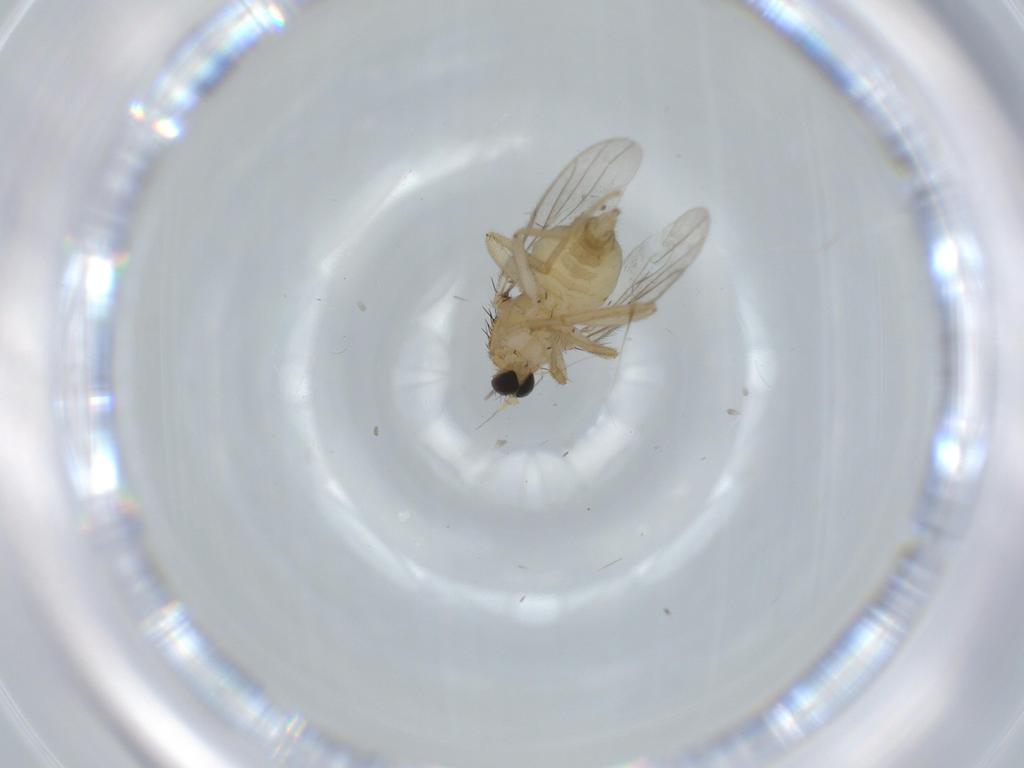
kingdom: Animalia
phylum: Arthropoda
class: Insecta
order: Diptera
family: Hybotidae
